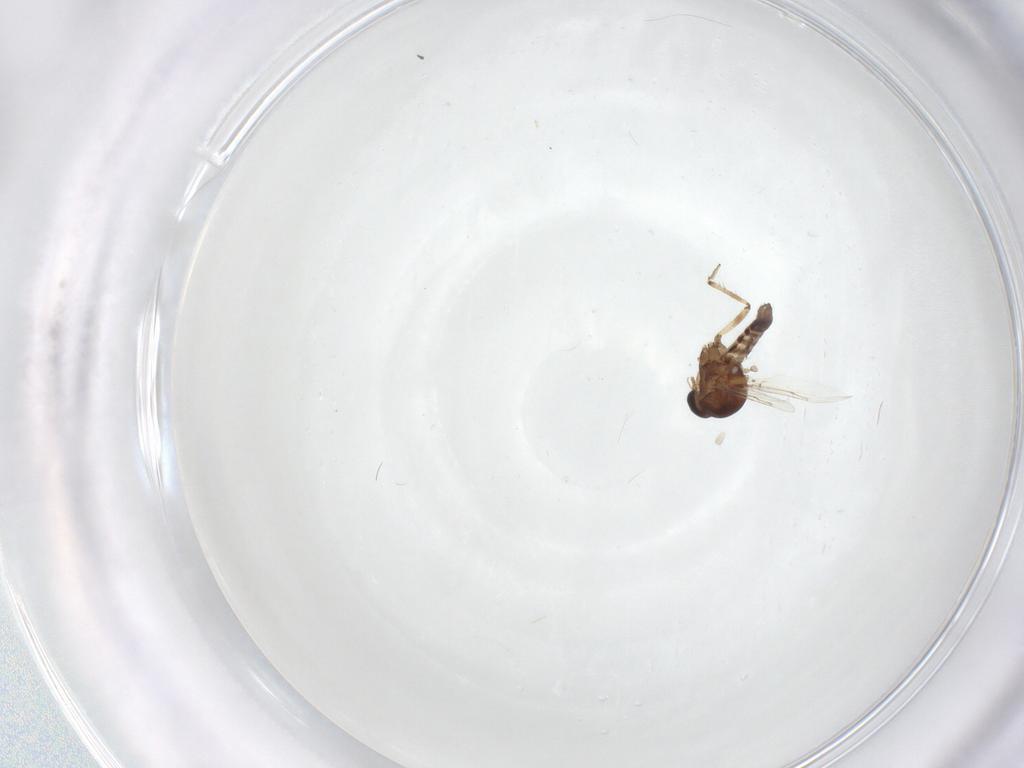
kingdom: Animalia
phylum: Arthropoda
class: Insecta
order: Diptera
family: Ceratopogonidae
